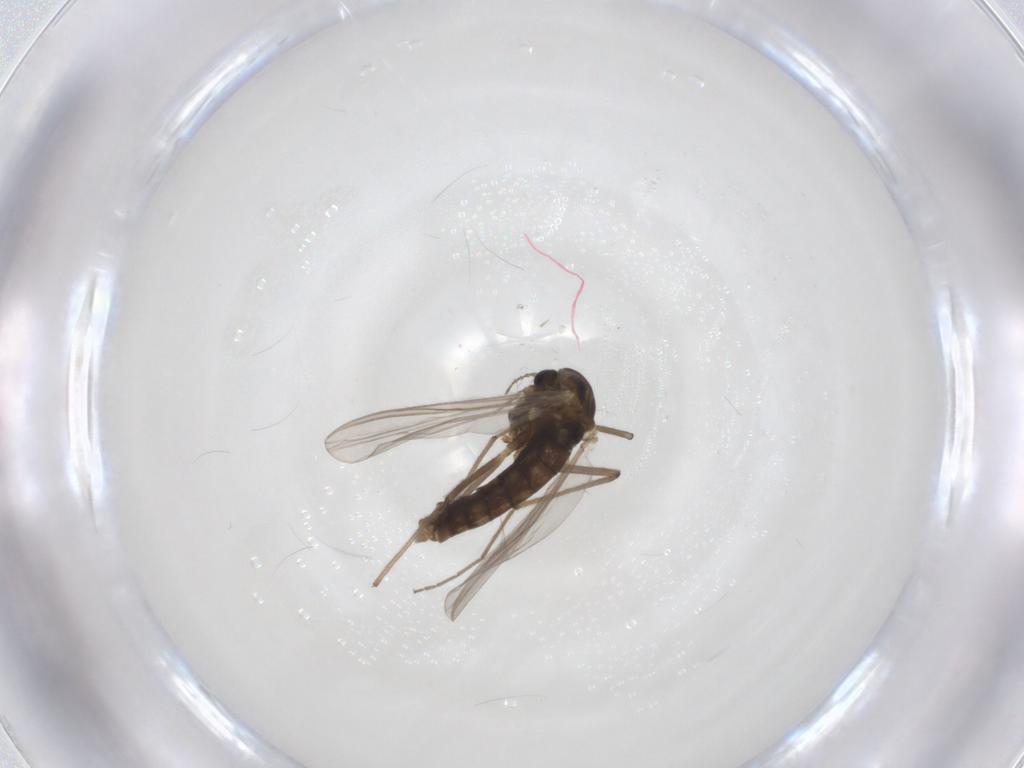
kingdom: Animalia
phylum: Arthropoda
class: Insecta
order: Diptera
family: Chironomidae
